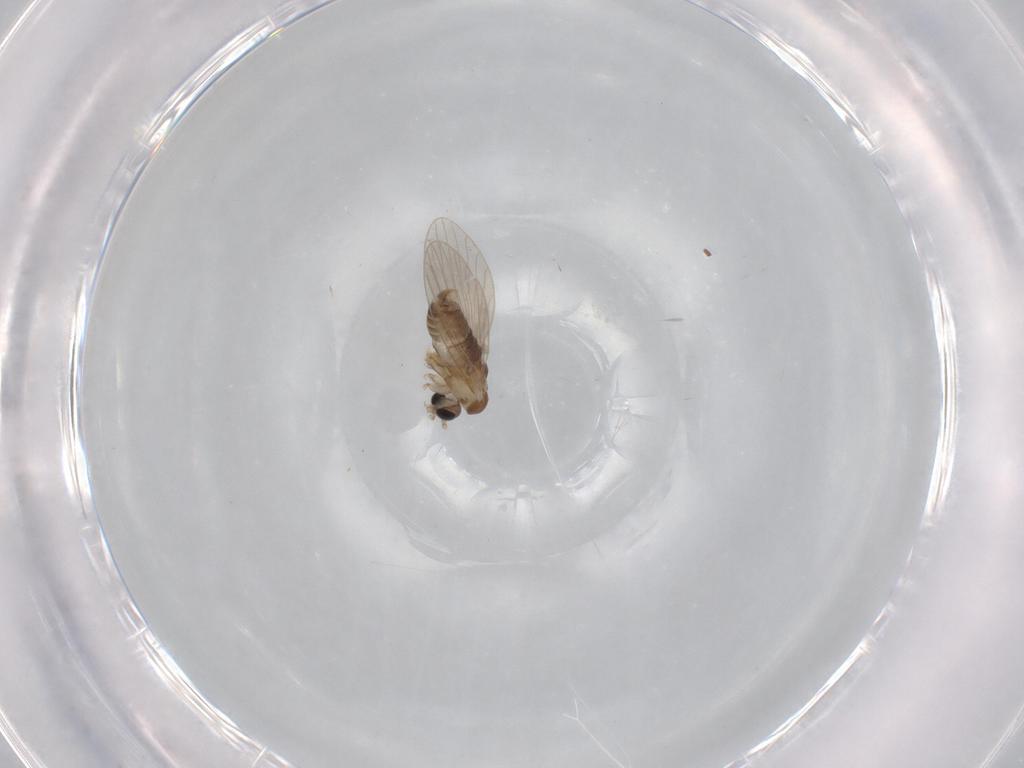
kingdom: Animalia
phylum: Arthropoda
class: Insecta
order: Diptera
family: Psychodidae
